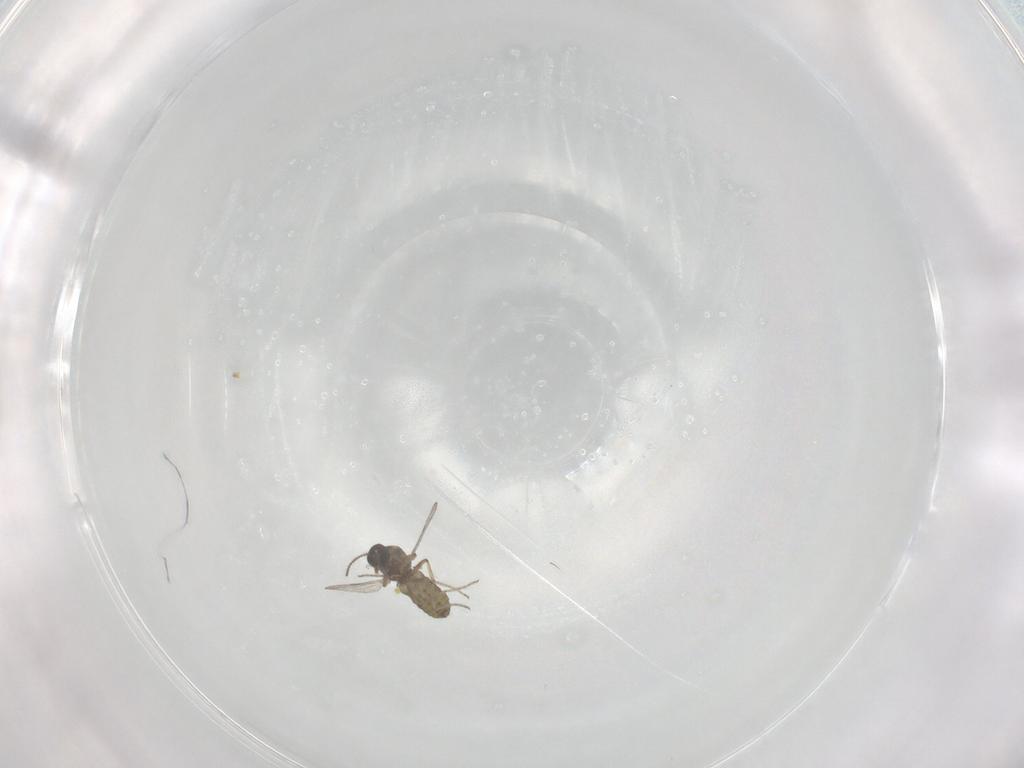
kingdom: Animalia
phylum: Arthropoda
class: Insecta
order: Diptera
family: Ceratopogonidae
